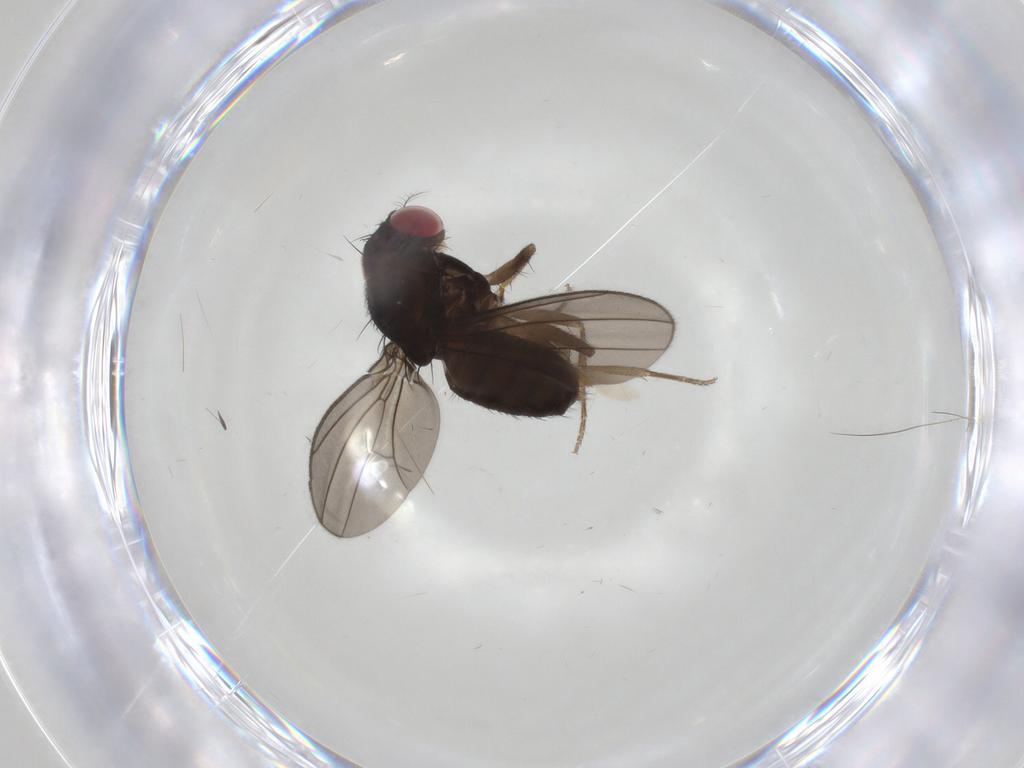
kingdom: Animalia
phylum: Arthropoda
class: Insecta
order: Diptera
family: Drosophilidae
